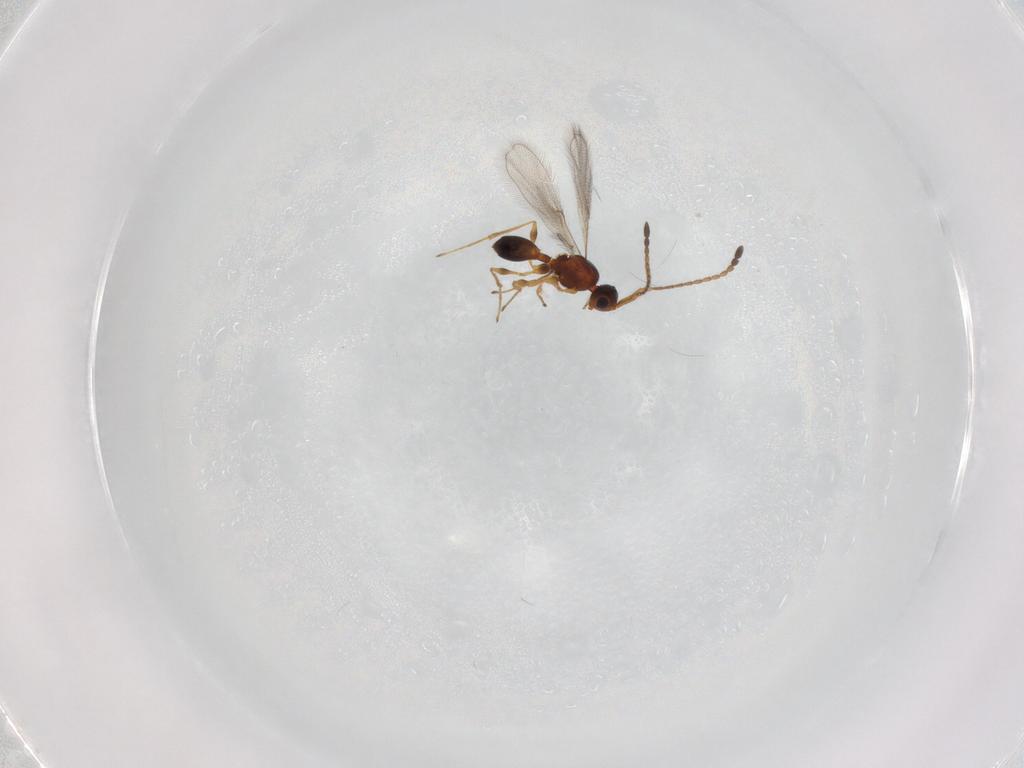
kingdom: Animalia
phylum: Arthropoda
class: Insecta
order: Hymenoptera
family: Diapriidae
